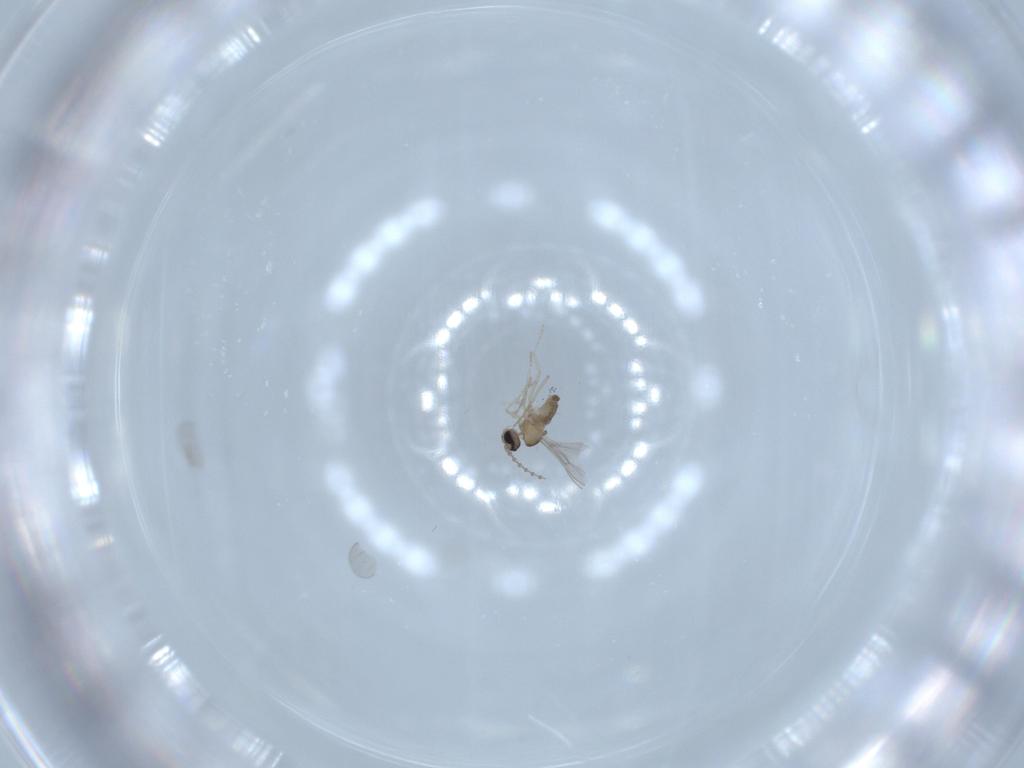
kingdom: Animalia
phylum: Arthropoda
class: Insecta
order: Diptera
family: Cecidomyiidae
